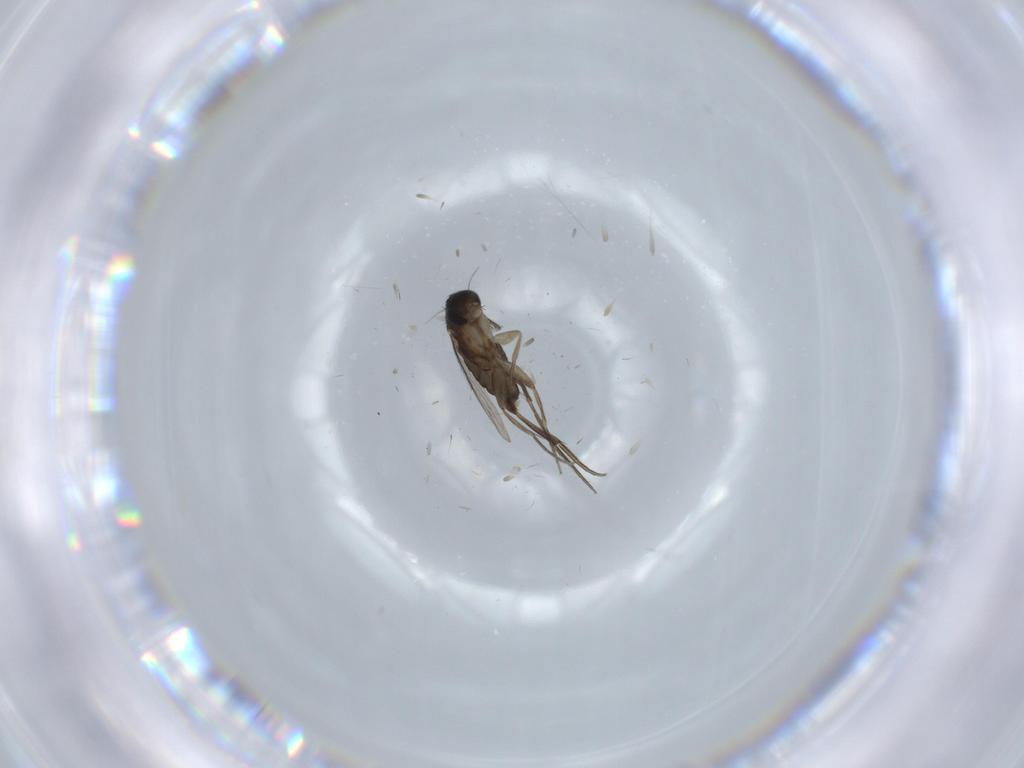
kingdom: Animalia
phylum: Arthropoda
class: Insecta
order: Diptera
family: Phoridae
